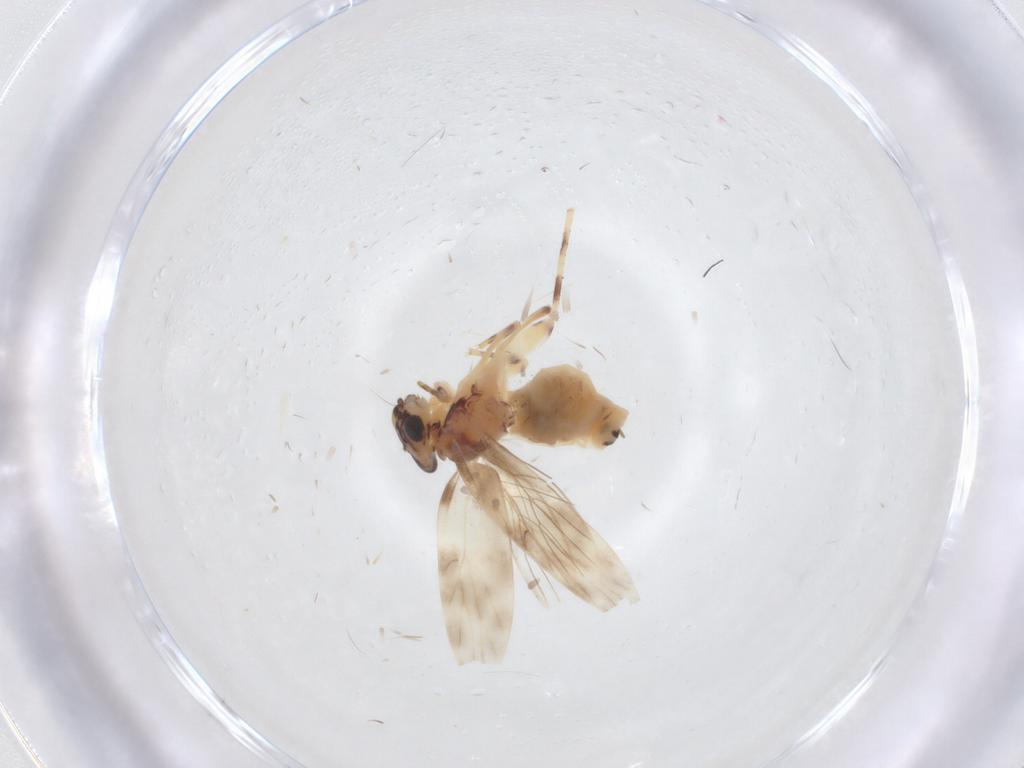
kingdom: Animalia
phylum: Arthropoda
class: Insecta
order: Psocodea
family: Lepidopsocidae
